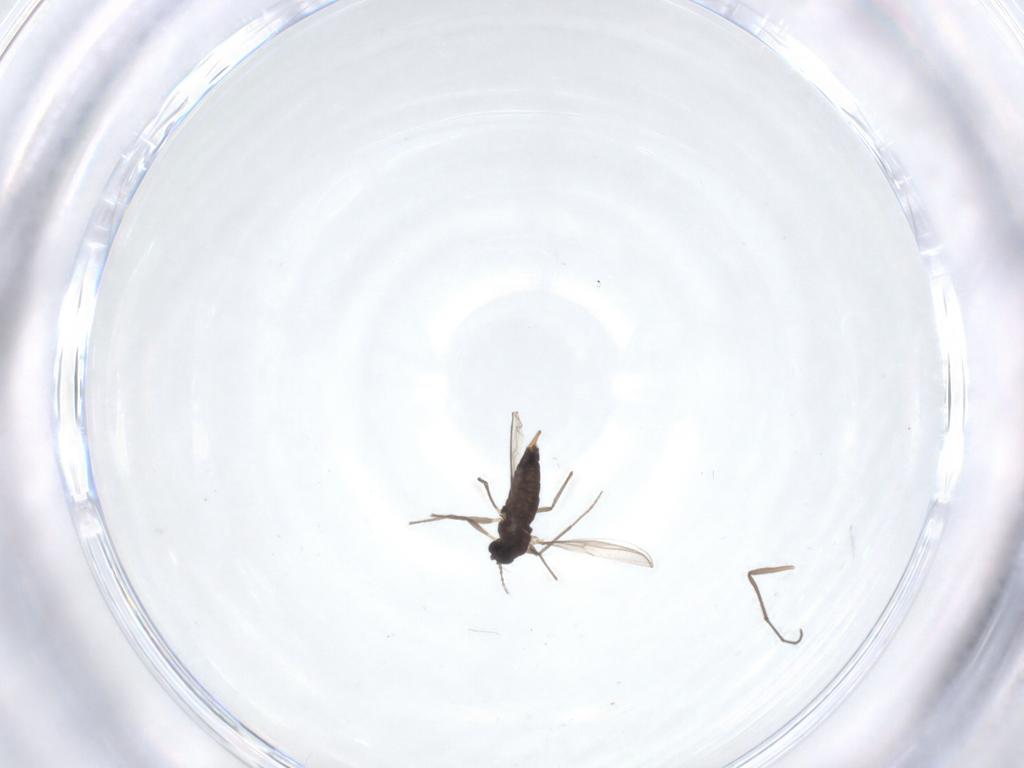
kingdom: Animalia
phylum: Arthropoda
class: Insecta
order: Diptera
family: Chironomidae
